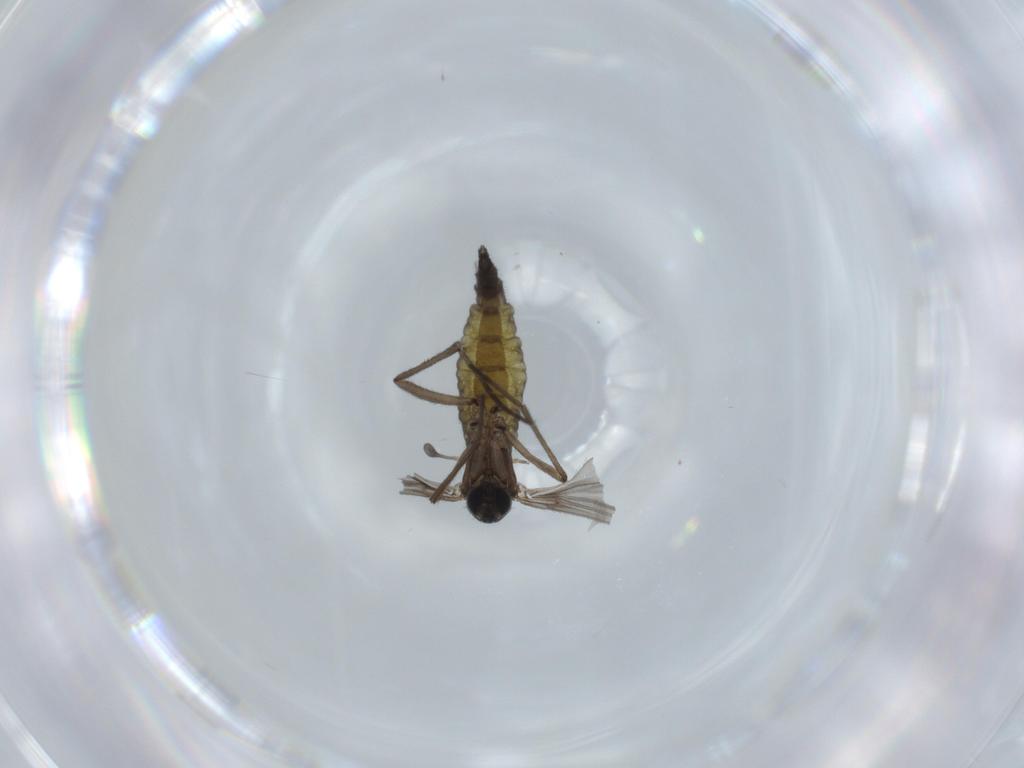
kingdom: Animalia
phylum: Arthropoda
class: Insecta
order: Diptera
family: Sciaridae
